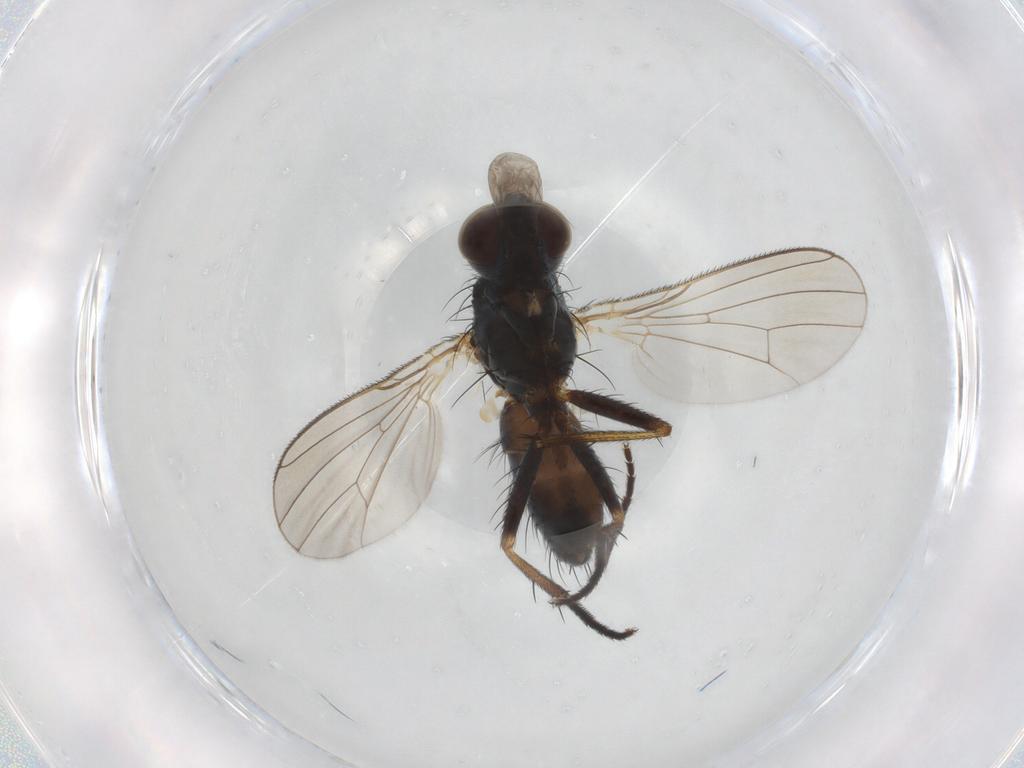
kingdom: Animalia
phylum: Arthropoda
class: Insecta
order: Diptera
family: Muscidae
